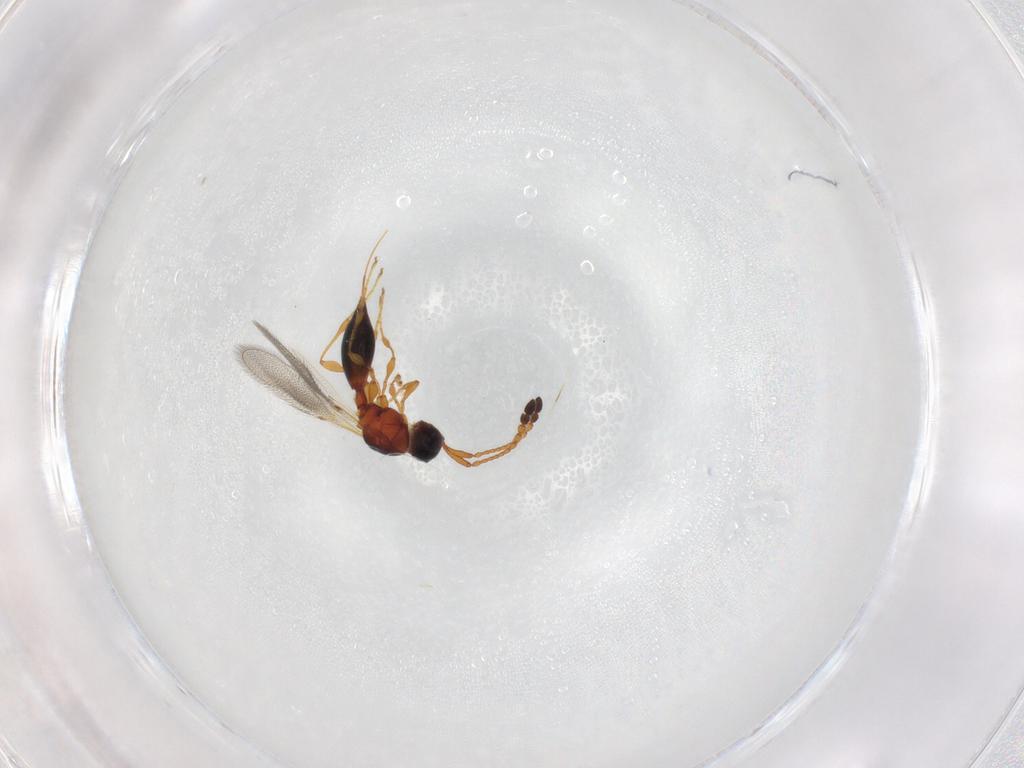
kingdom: Animalia
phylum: Arthropoda
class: Insecta
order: Hymenoptera
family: Diapriidae
